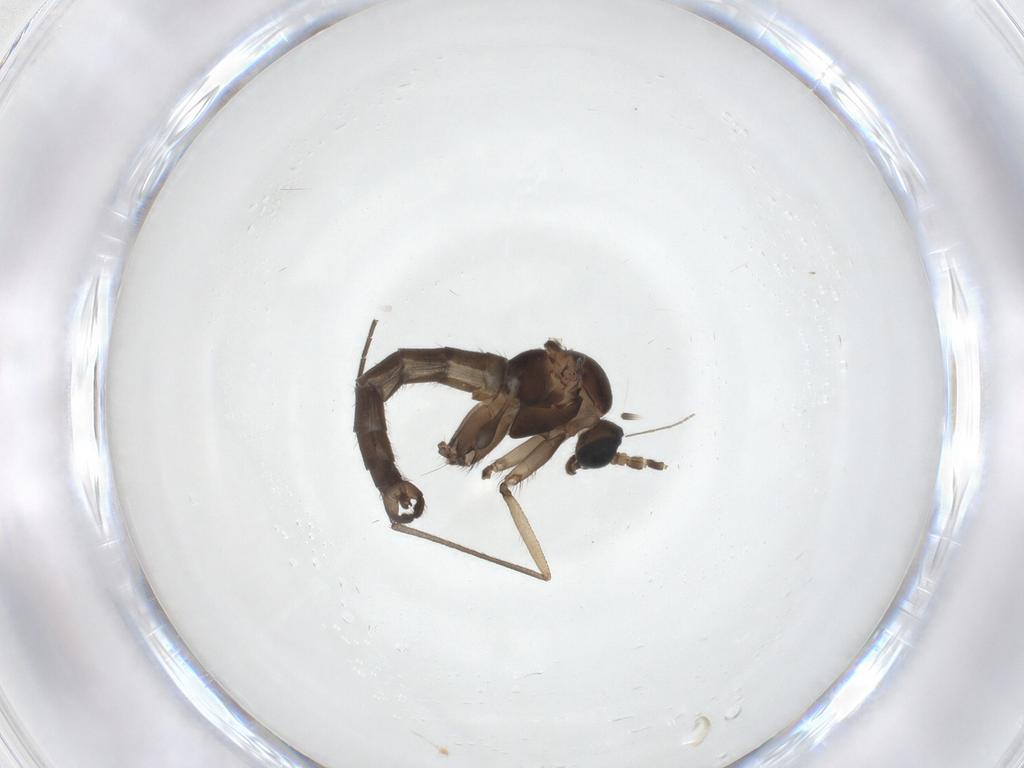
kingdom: Animalia
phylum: Arthropoda
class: Insecta
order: Diptera
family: Sciaridae
